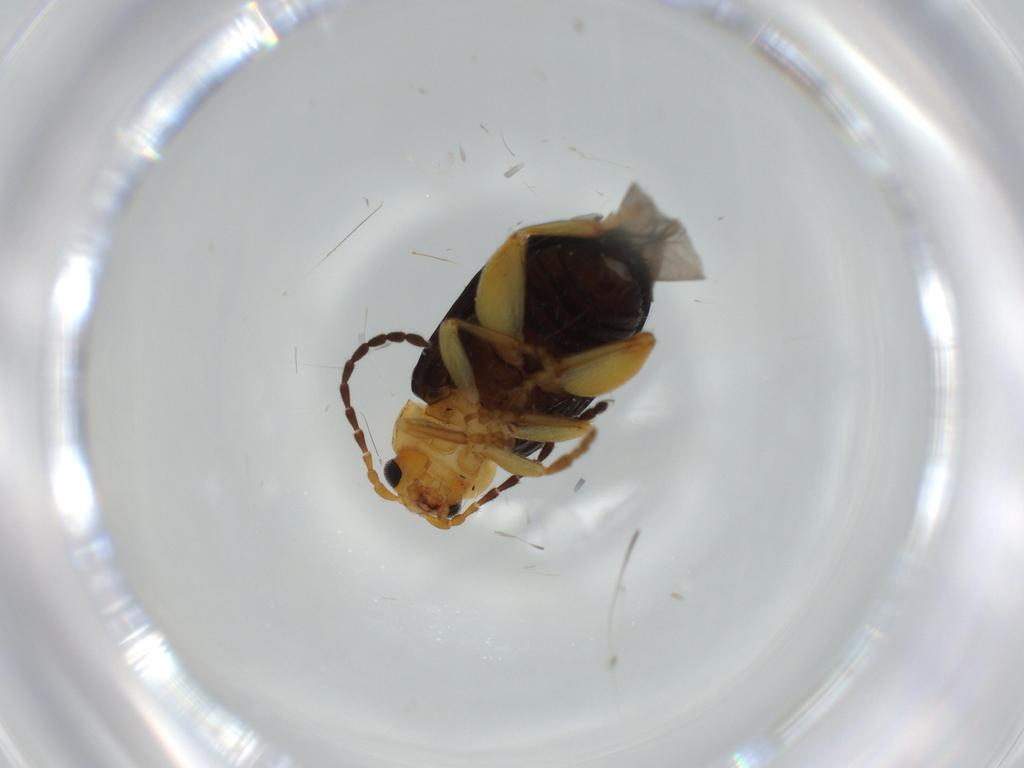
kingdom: Animalia
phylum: Arthropoda
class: Insecta
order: Coleoptera
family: Chrysomelidae
